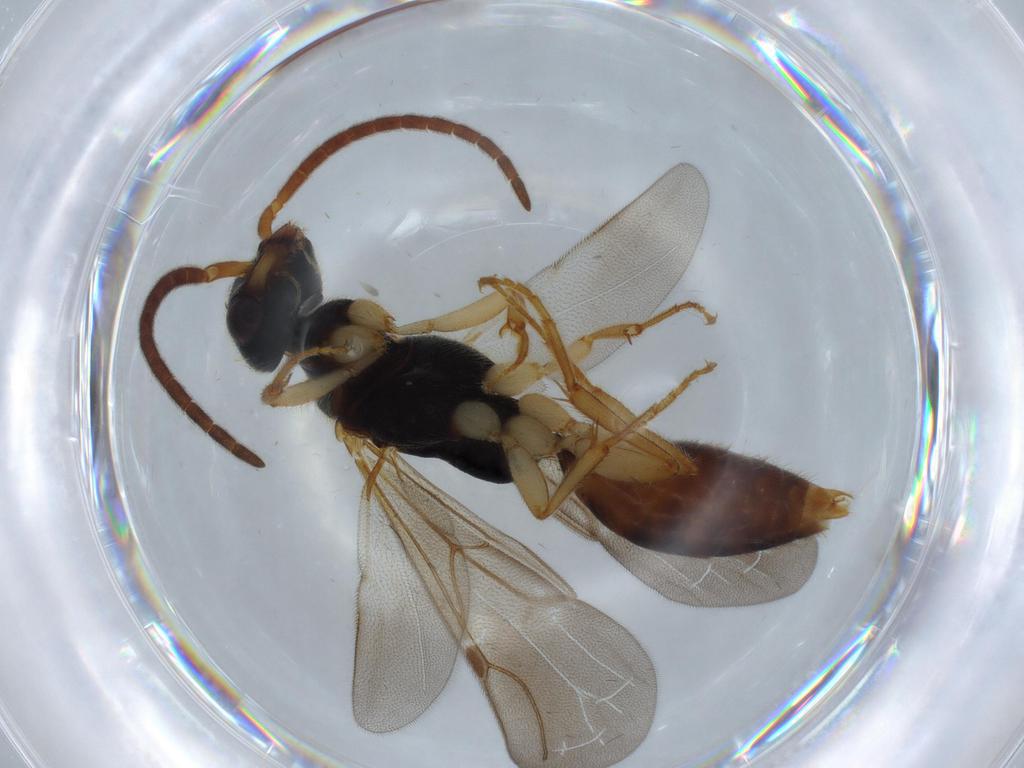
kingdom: Animalia
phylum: Arthropoda
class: Insecta
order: Hymenoptera
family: Bethylidae
